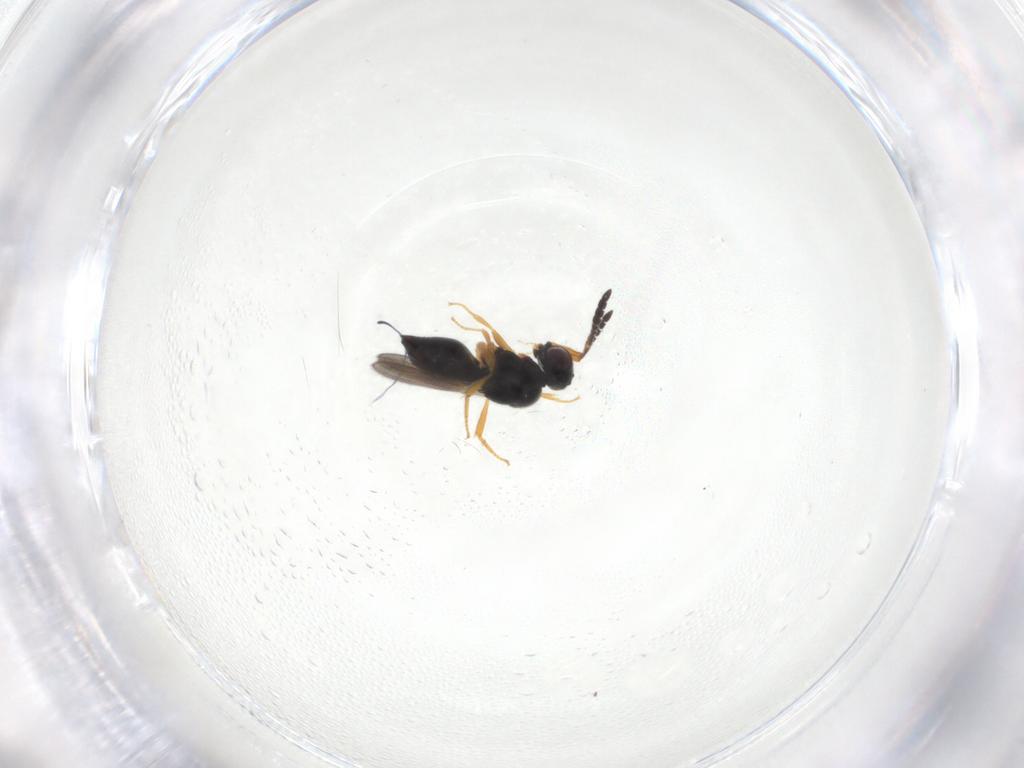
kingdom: Animalia
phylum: Arthropoda
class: Insecta
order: Hymenoptera
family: Ceraphronidae
